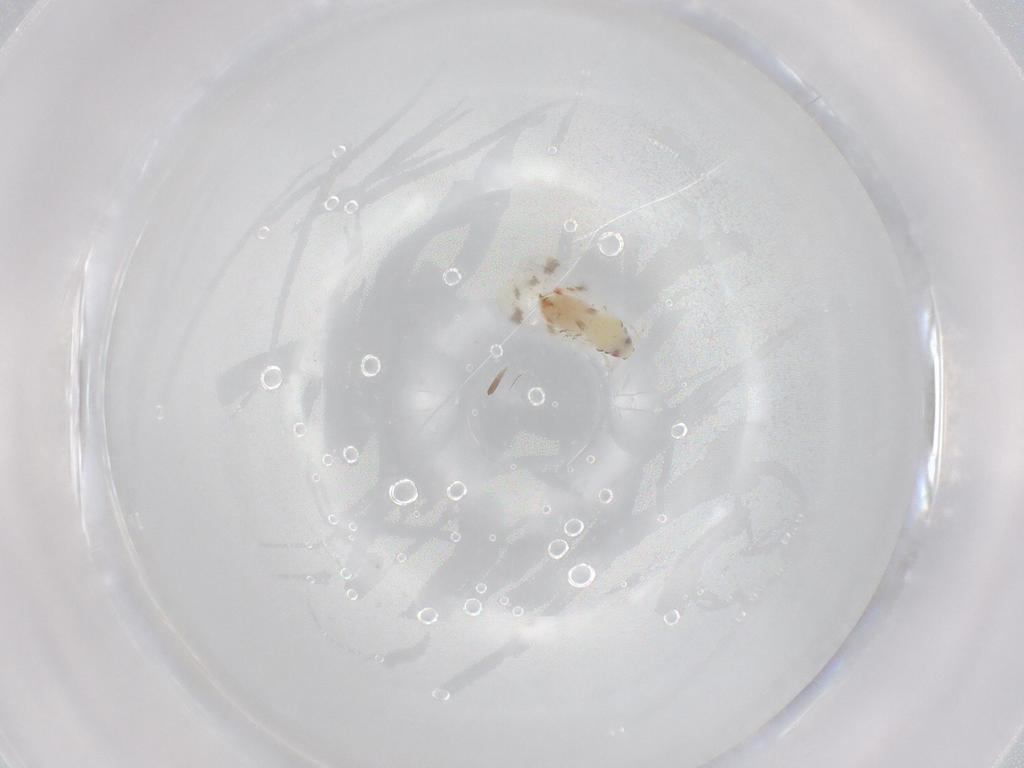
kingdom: Animalia
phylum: Arthropoda
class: Insecta
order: Hemiptera
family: Aleyrodidae
